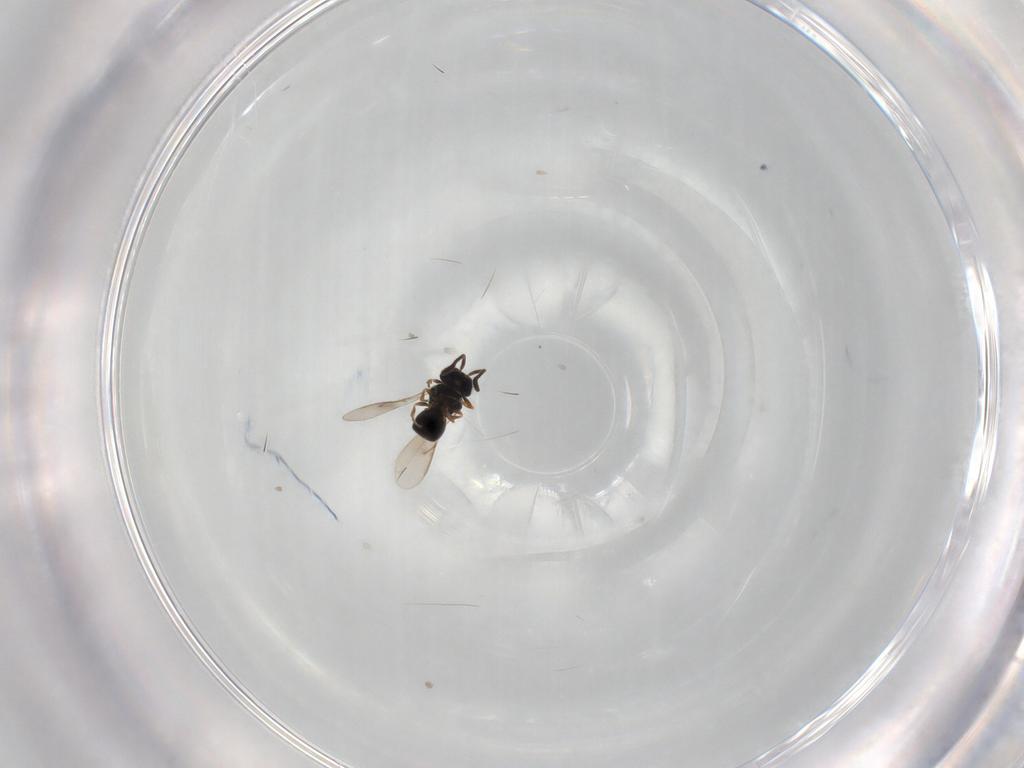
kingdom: Animalia
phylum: Arthropoda
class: Insecta
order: Hymenoptera
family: Scelionidae
